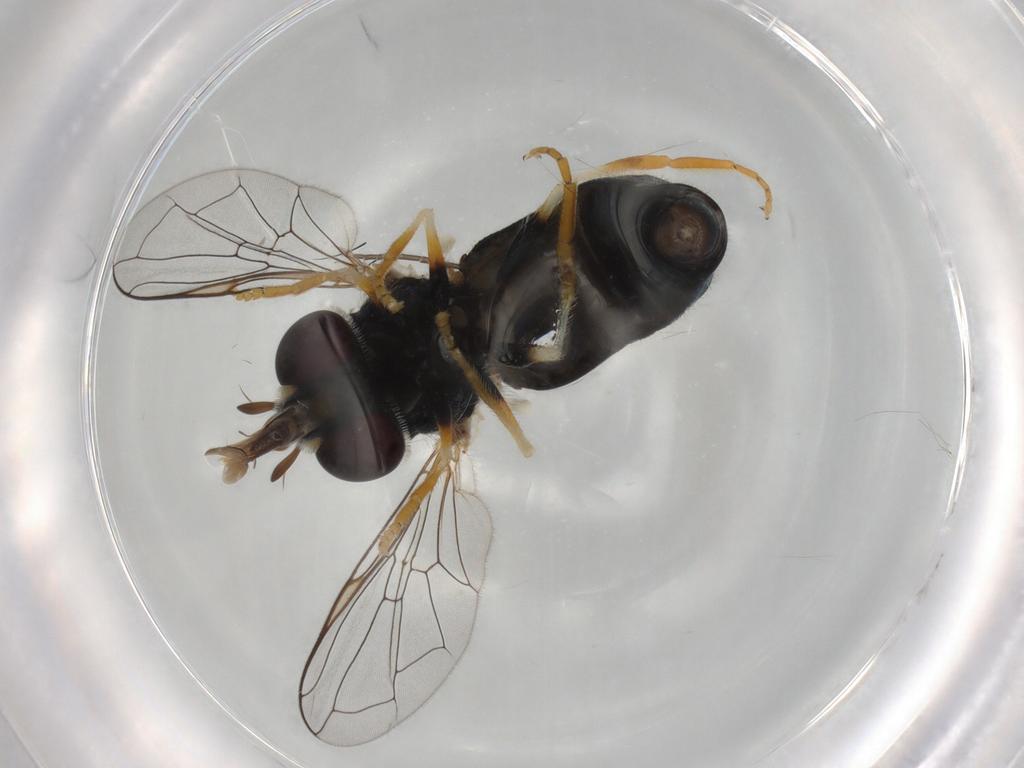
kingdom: Animalia
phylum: Arthropoda
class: Insecta
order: Diptera
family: Syrphidae
